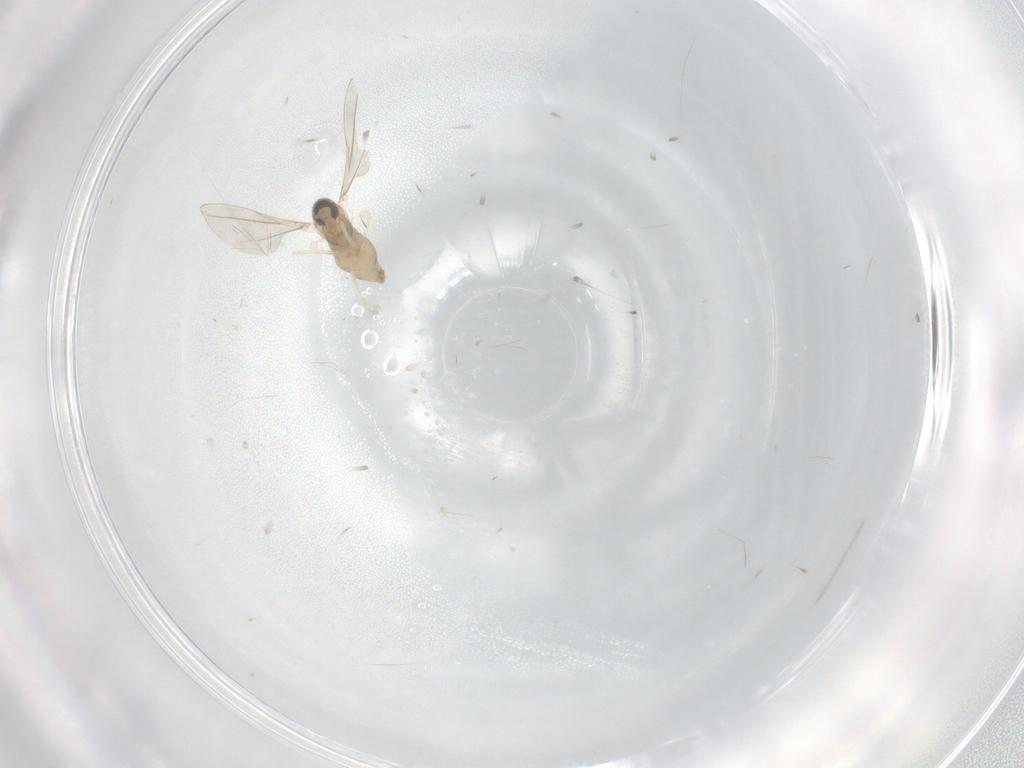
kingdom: Animalia
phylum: Arthropoda
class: Insecta
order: Diptera
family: Cecidomyiidae
